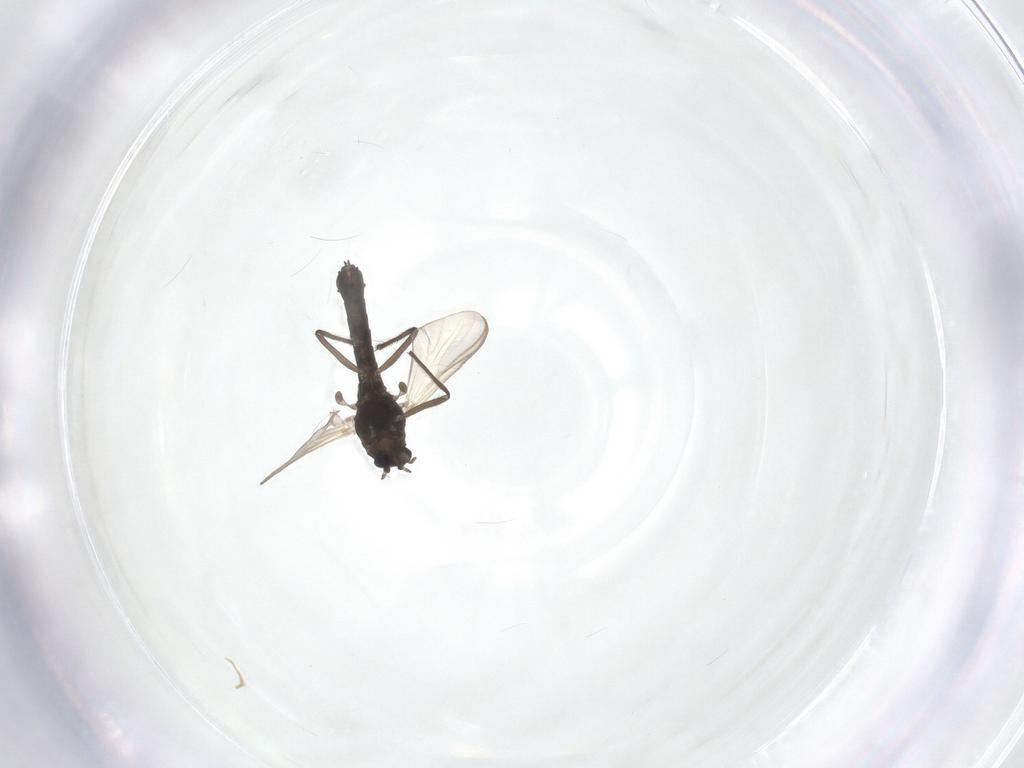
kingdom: Animalia
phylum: Arthropoda
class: Insecta
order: Diptera
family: Chironomidae
